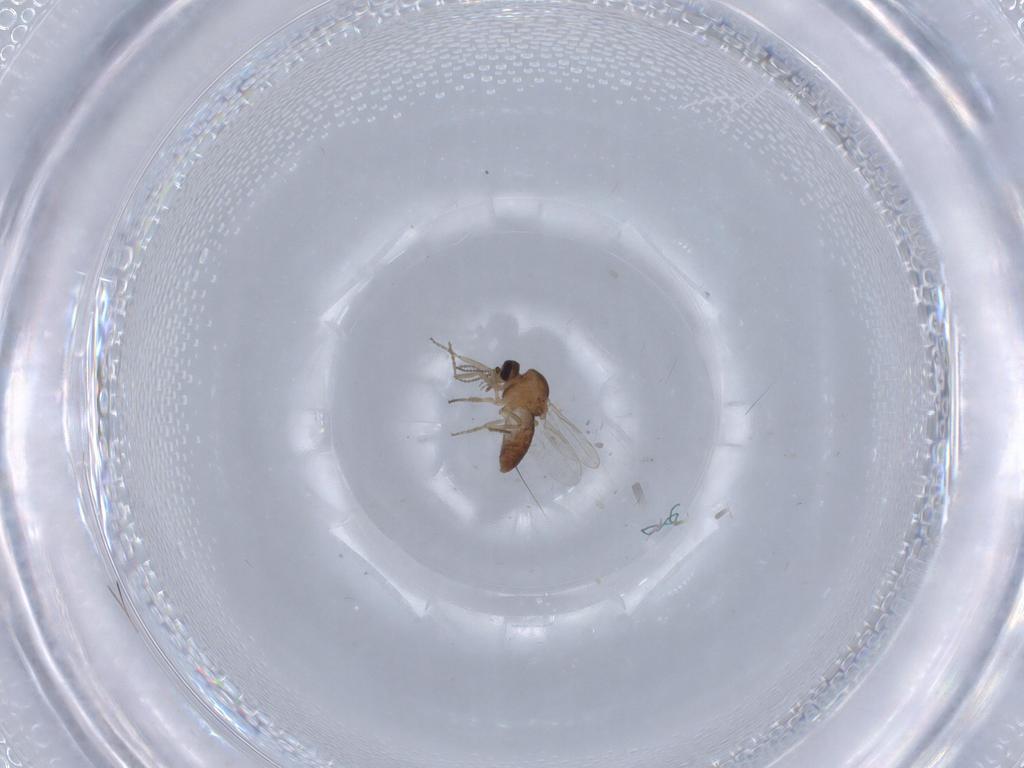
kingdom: Animalia
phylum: Arthropoda
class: Insecta
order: Diptera
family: Ceratopogonidae
